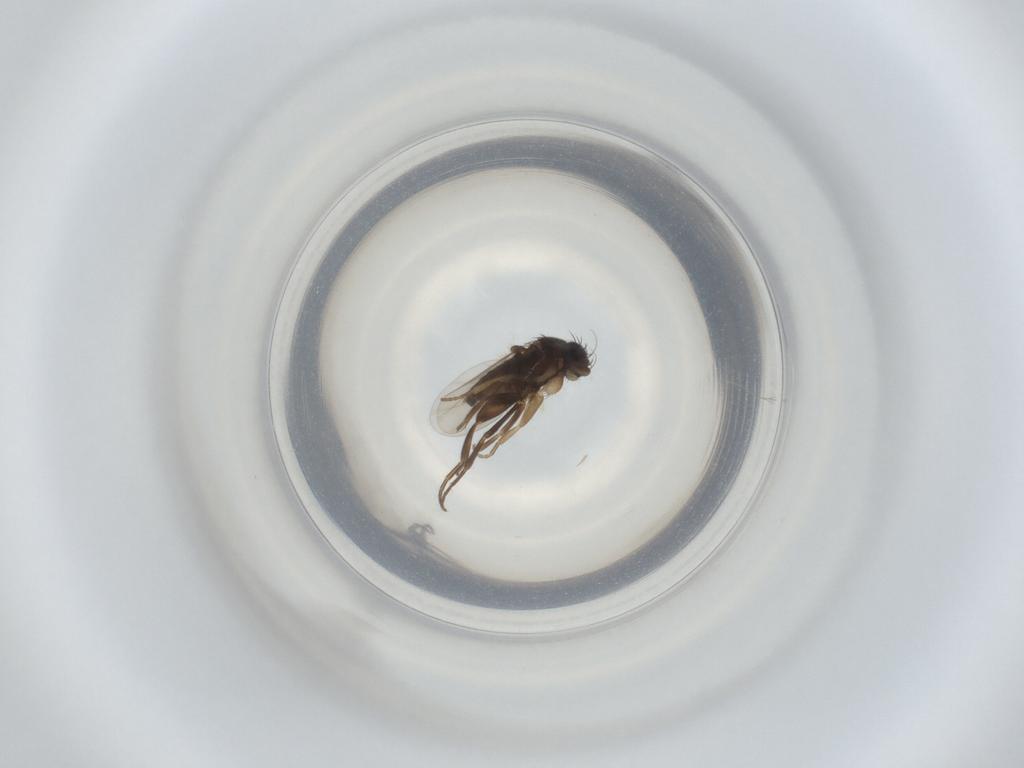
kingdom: Animalia
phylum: Arthropoda
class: Insecta
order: Diptera
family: Phoridae
